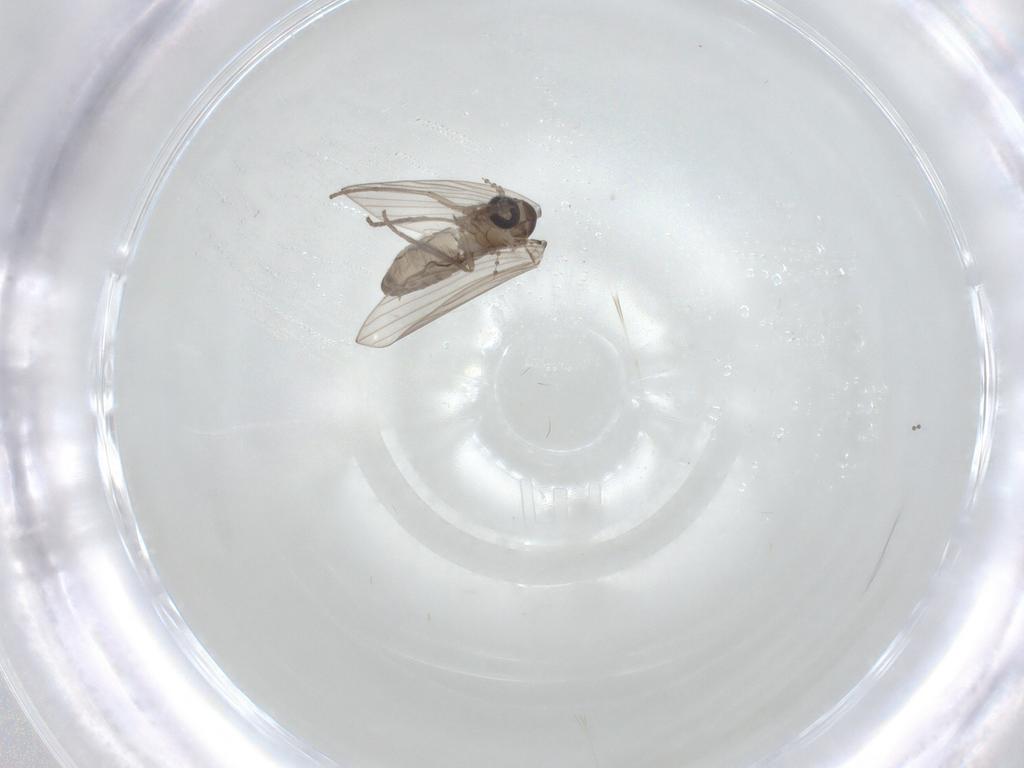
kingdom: Animalia
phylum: Arthropoda
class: Insecta
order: Diptera
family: Psychodidae
